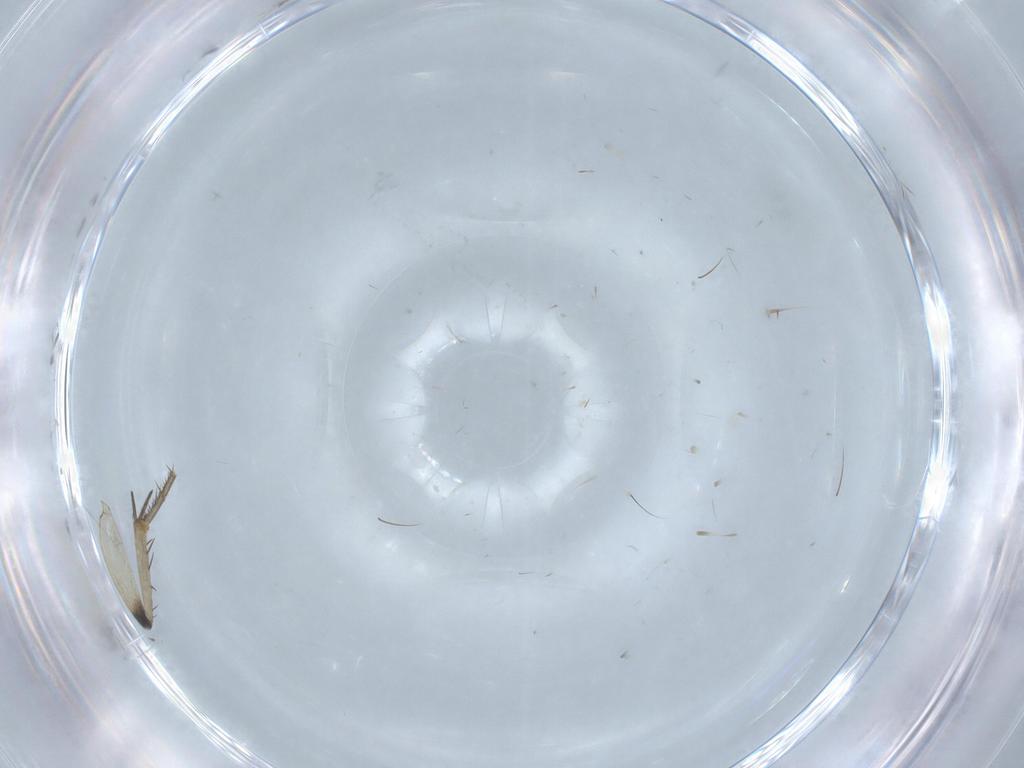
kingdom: Animalia
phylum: Arthropoda
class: Insecta
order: Diptera
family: Mycetophilidae
